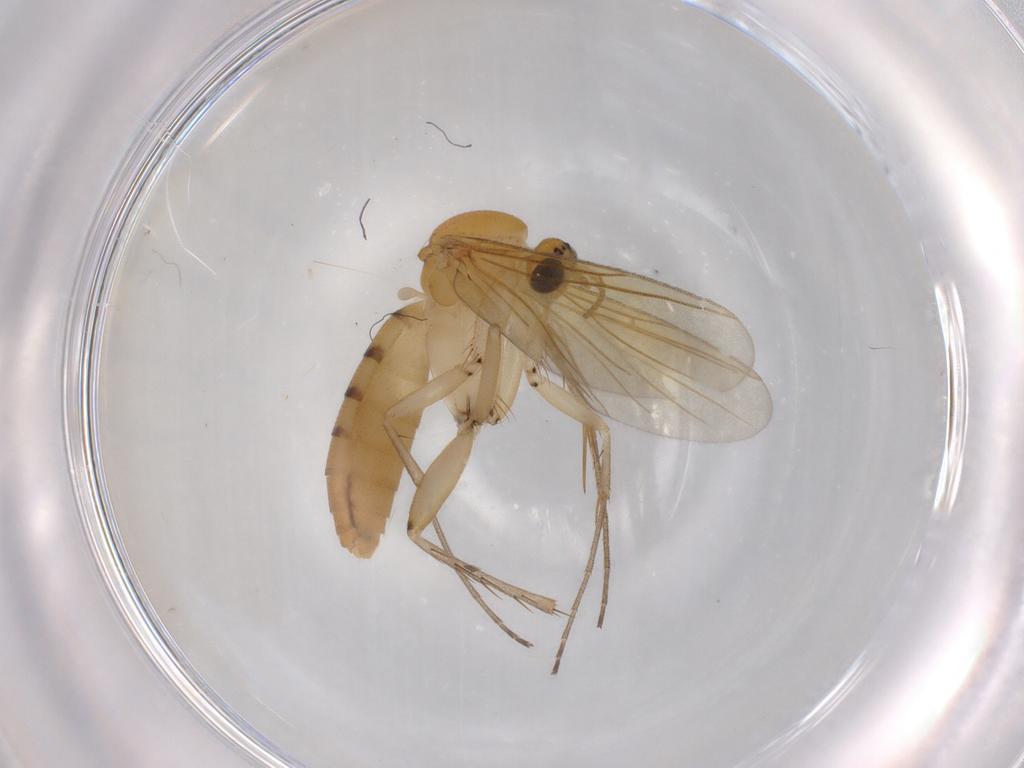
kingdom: Animalia
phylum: Arthropoda
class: Insecta
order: Diptera
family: Mycetophilidae
